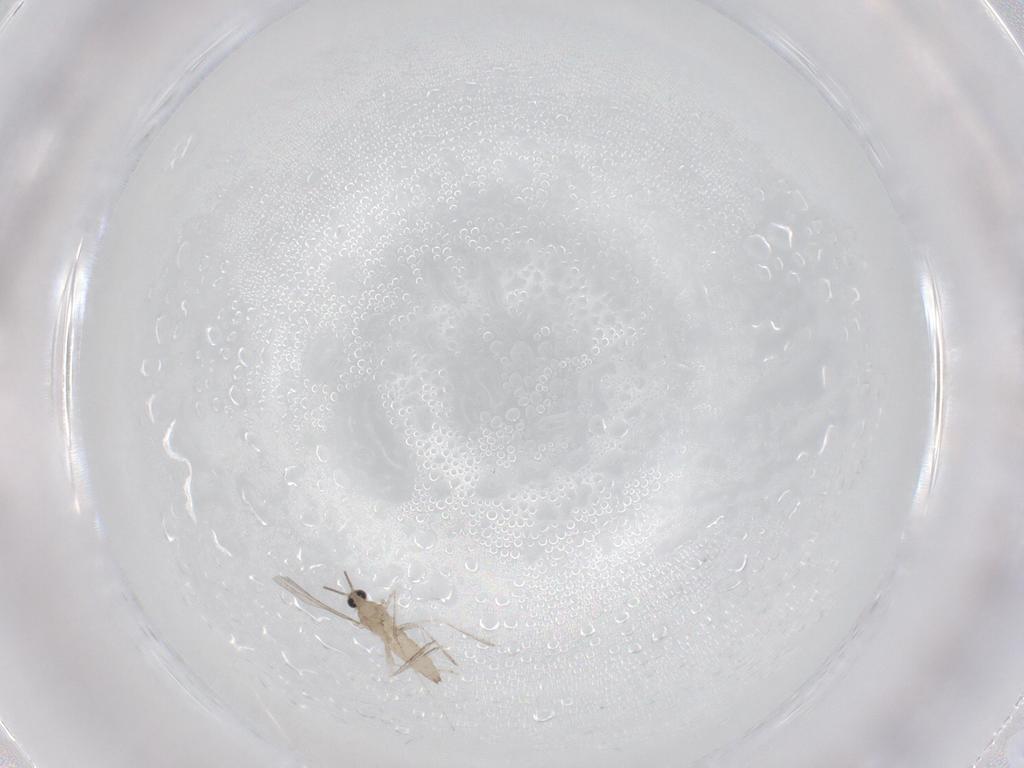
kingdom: Animalia
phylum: Arthropoda
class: Insecta
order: Diptera
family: Cecidomyiidae
